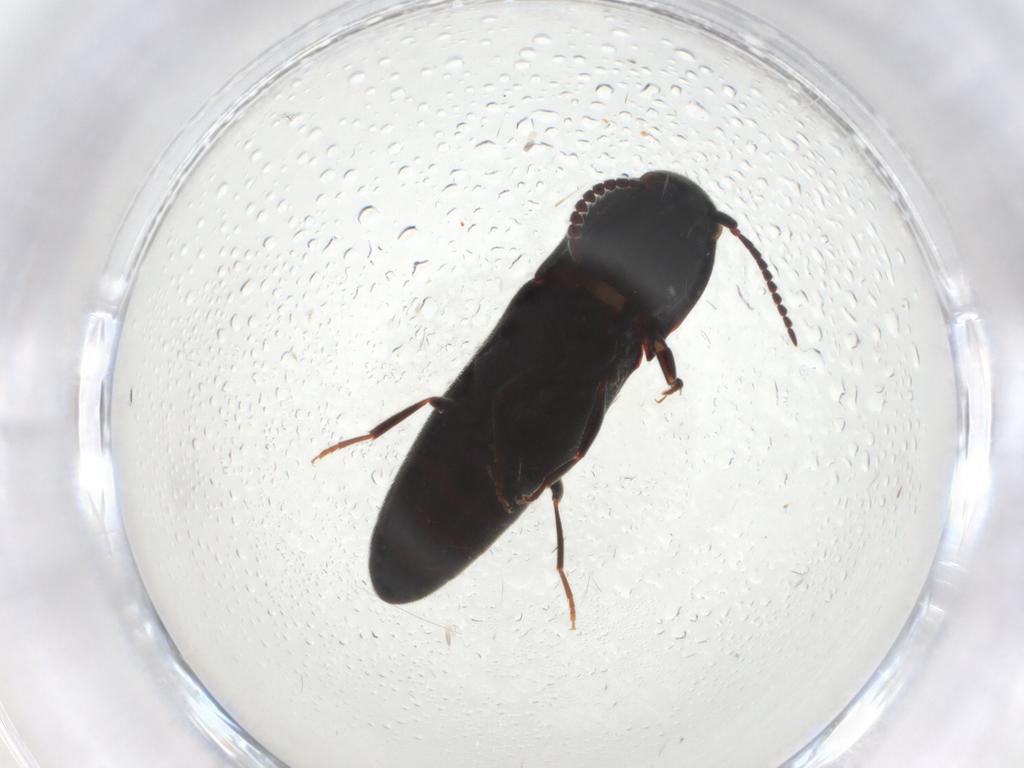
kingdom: Animalia
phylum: Arthropoda
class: Insecta
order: Coleoptera
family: Eucnemidae
